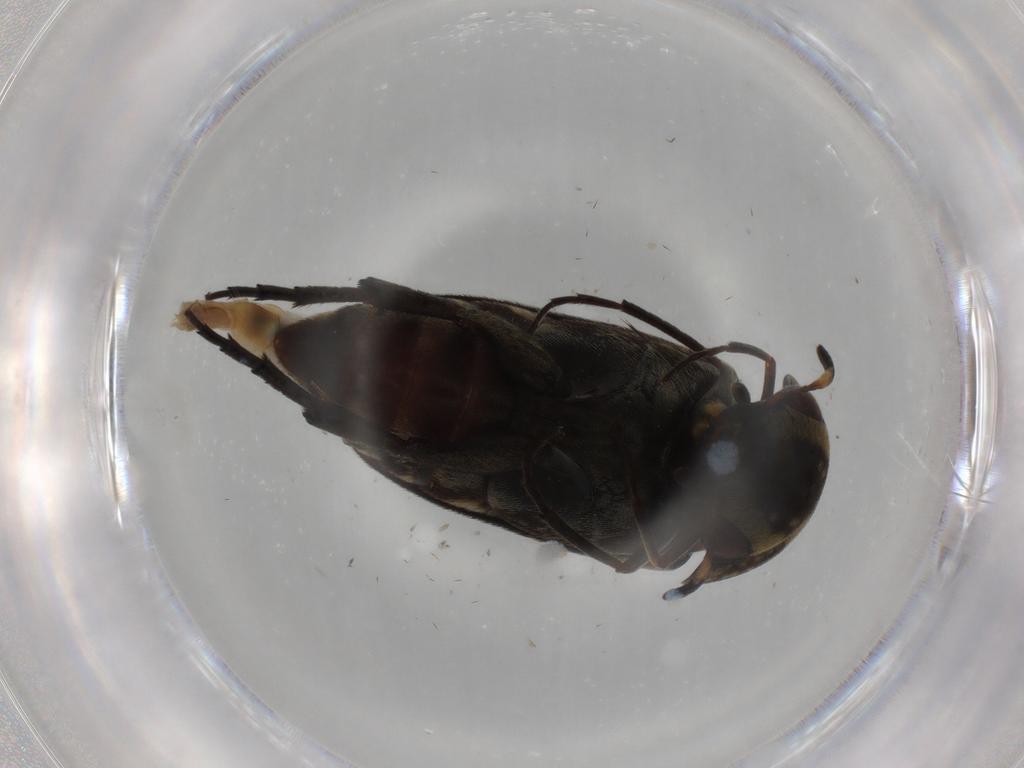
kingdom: Animalia
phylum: Arthropoda
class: Insecta
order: Coleoptera
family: Mordellidae
